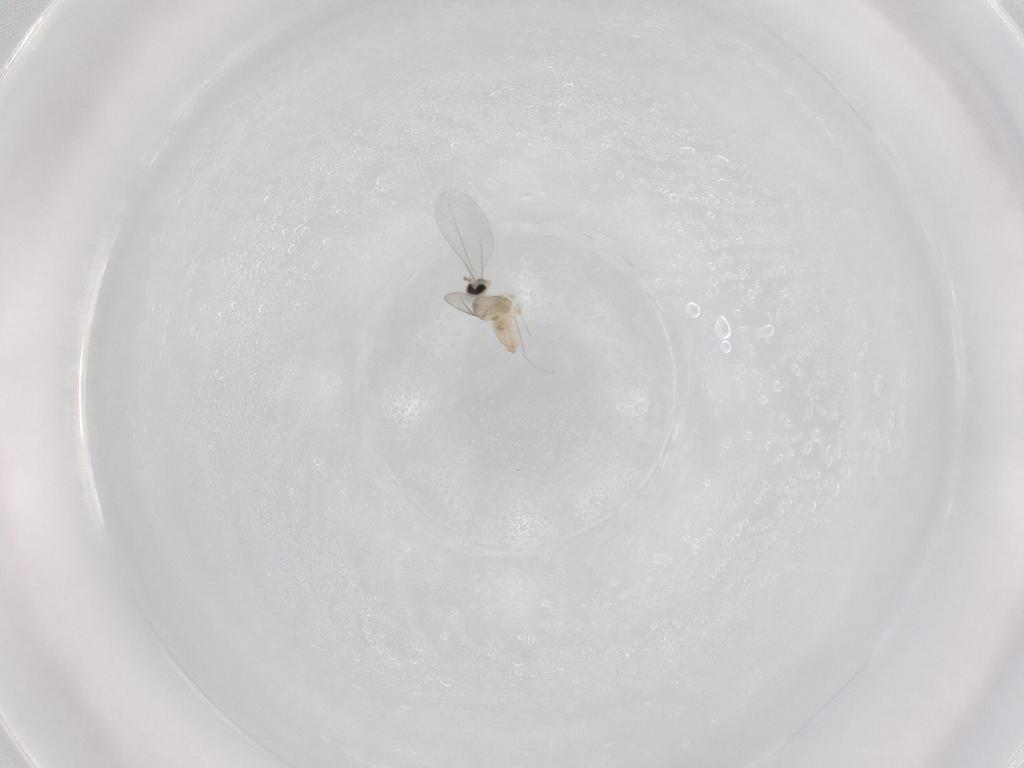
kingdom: Animalia
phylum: Arthropoda
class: Insecta
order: Diptera
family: Cecidomyiidae
